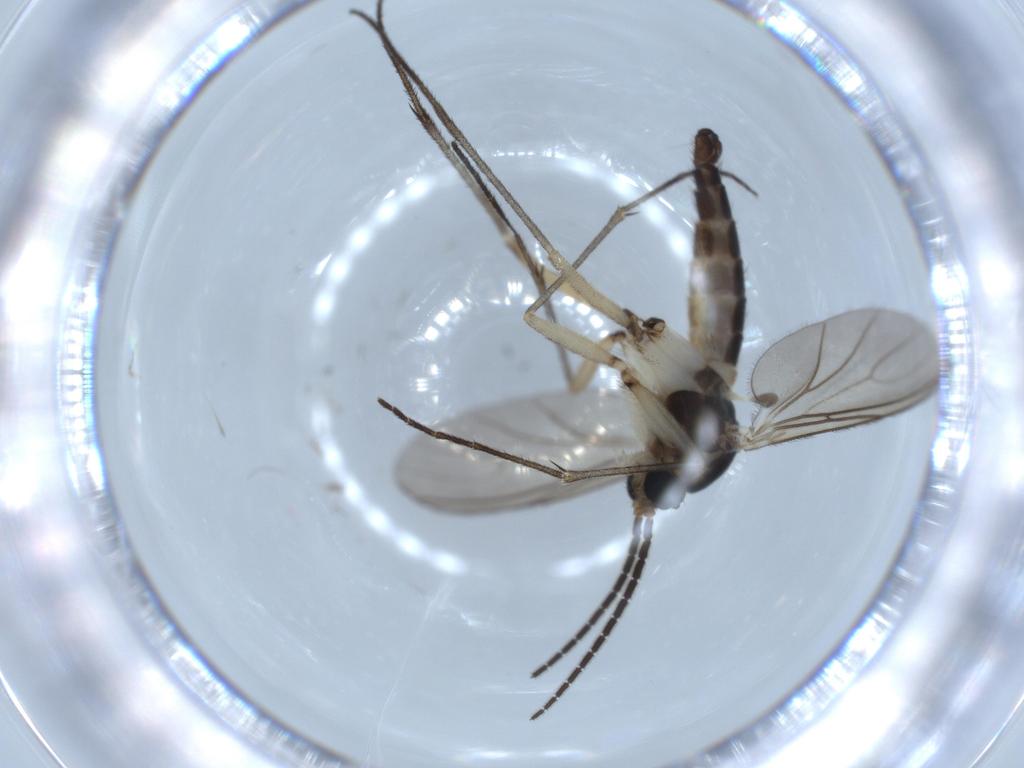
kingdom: Animalia
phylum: Arthropoda
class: Insecta
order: Diptera
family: Sciaridae
